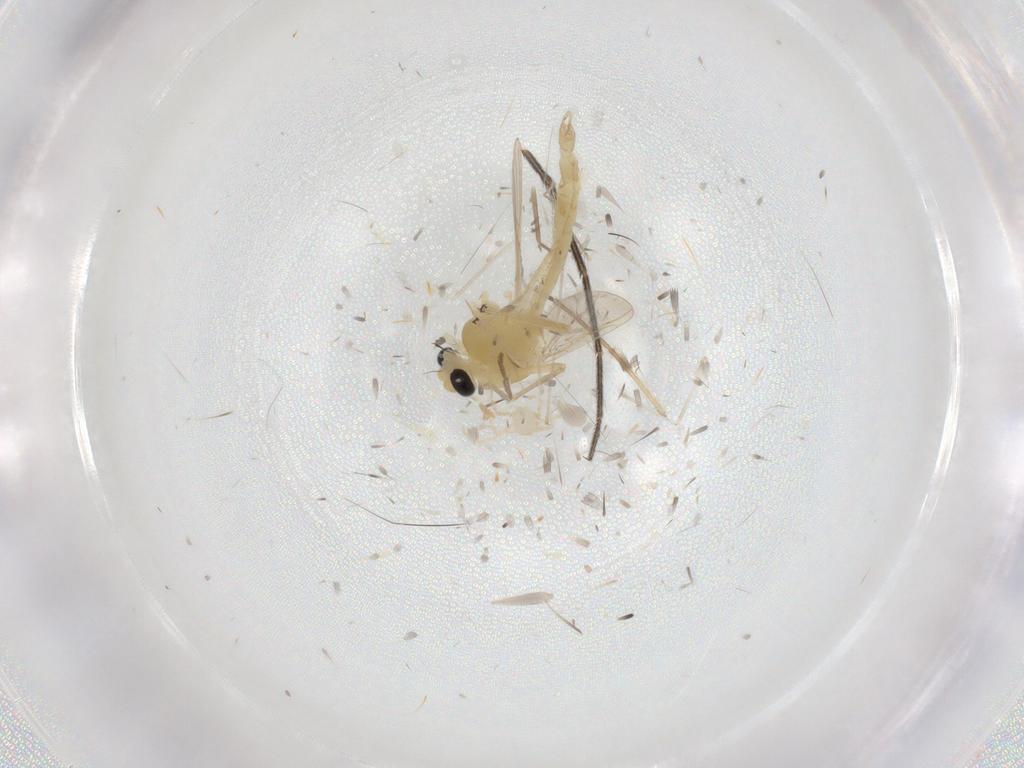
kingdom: Animalia
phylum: Arthropoda
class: Insecta
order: Diptera
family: Chironomidae
